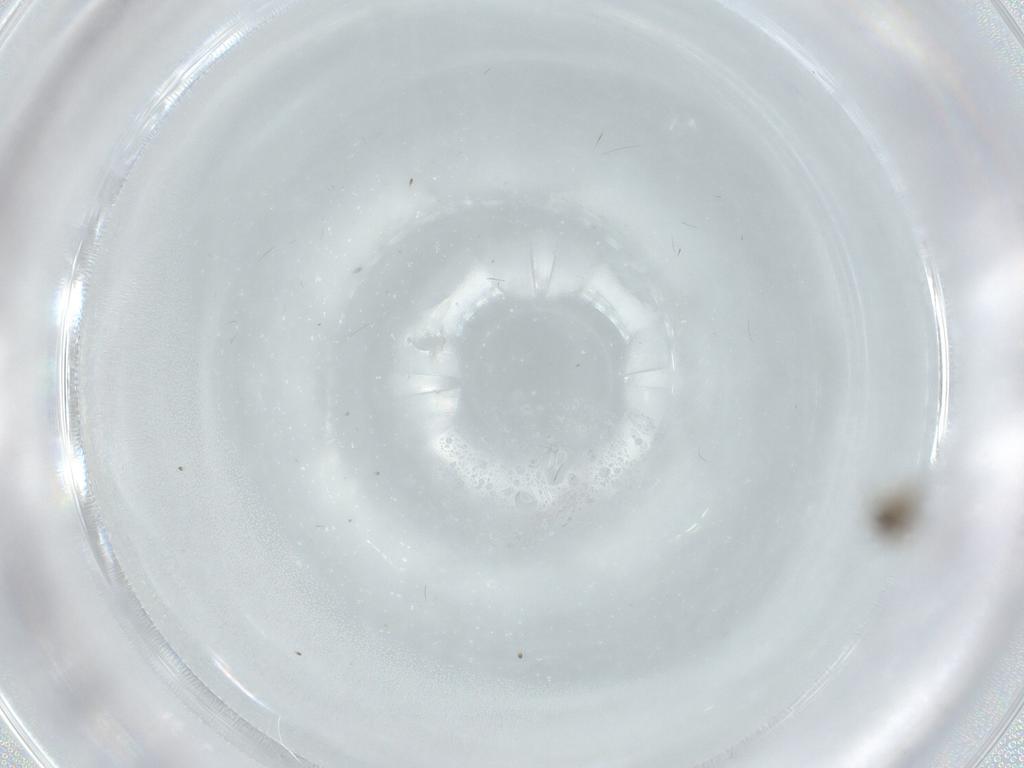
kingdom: Animalia
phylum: Arthropoda
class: Insecta
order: Diptera
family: Cecidomyiidae
